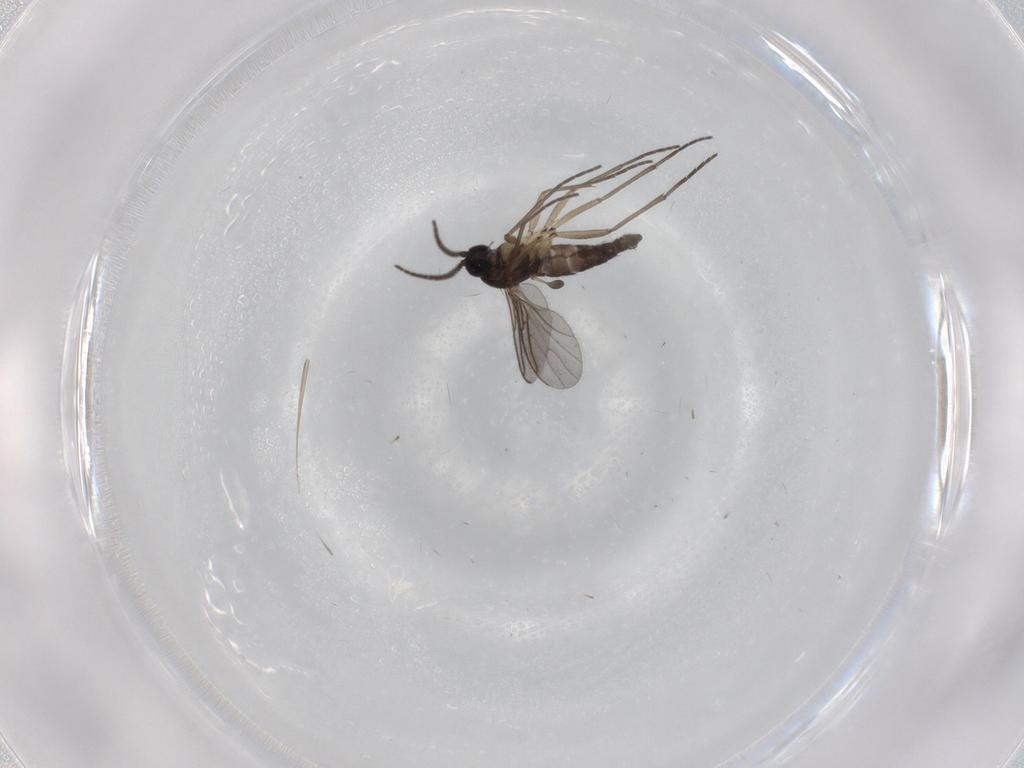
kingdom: Animalia
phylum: Arthropoda
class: Insecta
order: Diptera
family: Sciaridae
